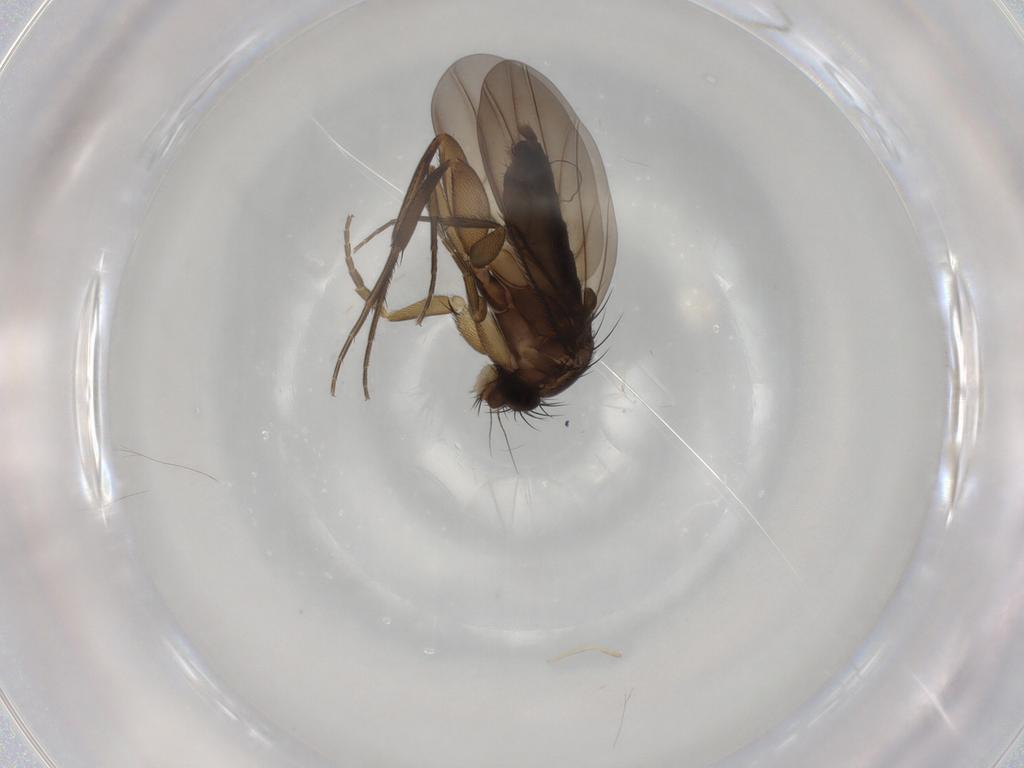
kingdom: Animalia
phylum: Arthropoda
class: Insecta
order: Diptera
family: Phoridae
